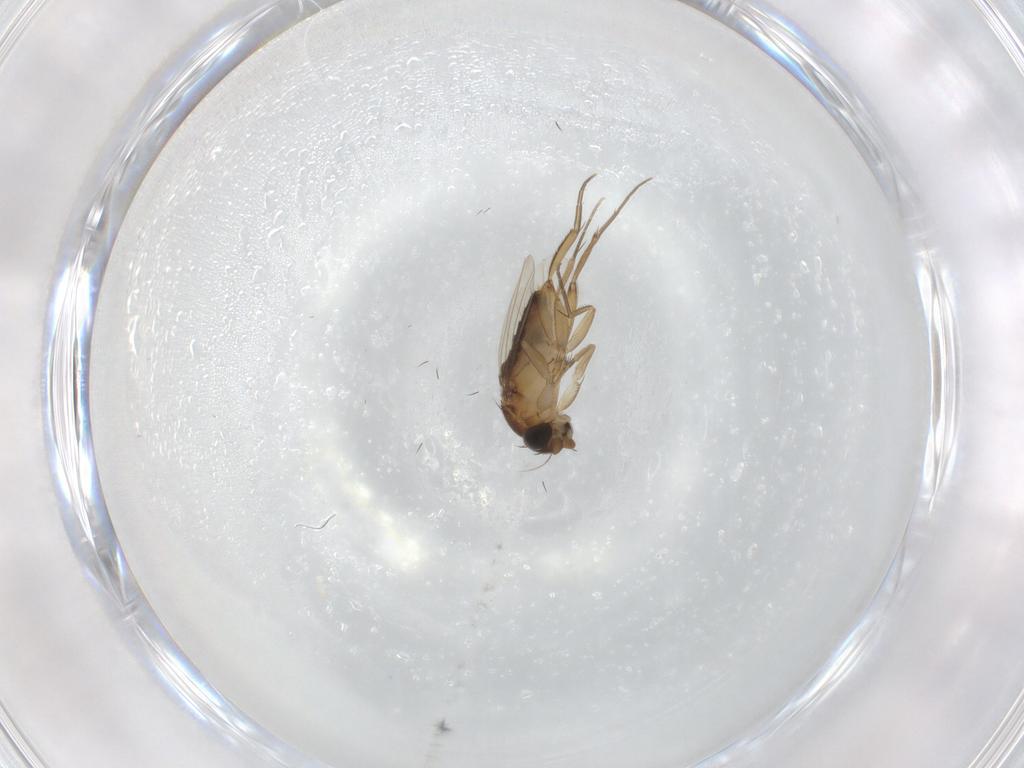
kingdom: Animalia
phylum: Arthropoda
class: Insecta
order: Diptera
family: Phoridae
